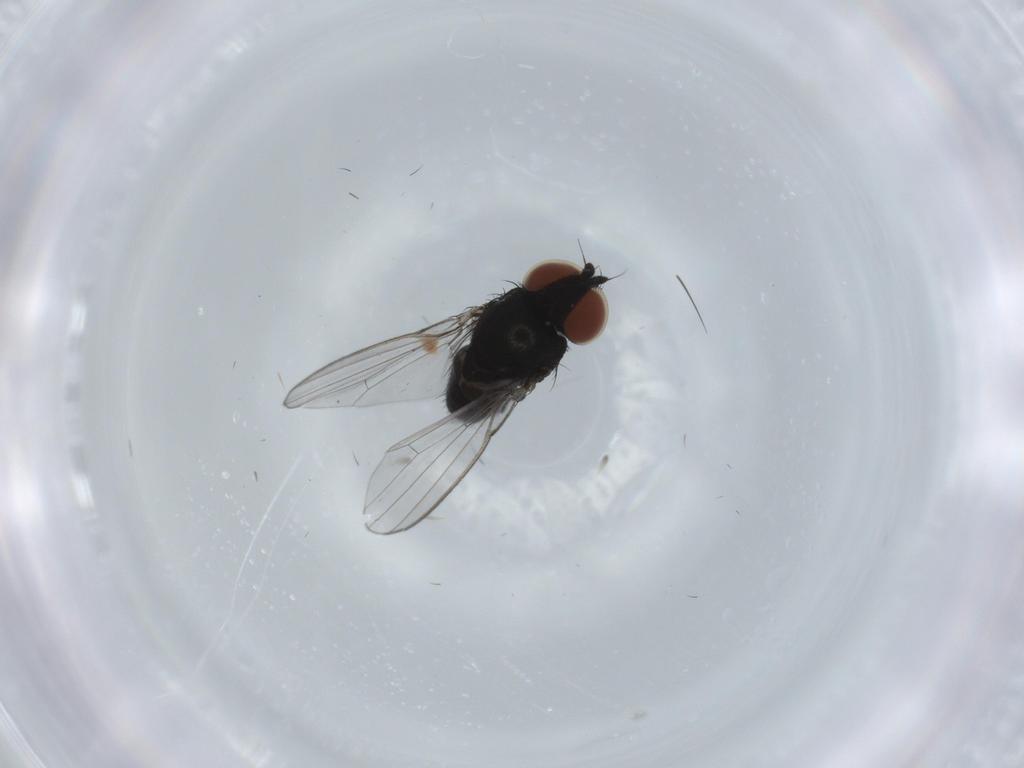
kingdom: Animalia
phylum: Arthropoda
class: Insecta
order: Diptera
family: Milichiidae
